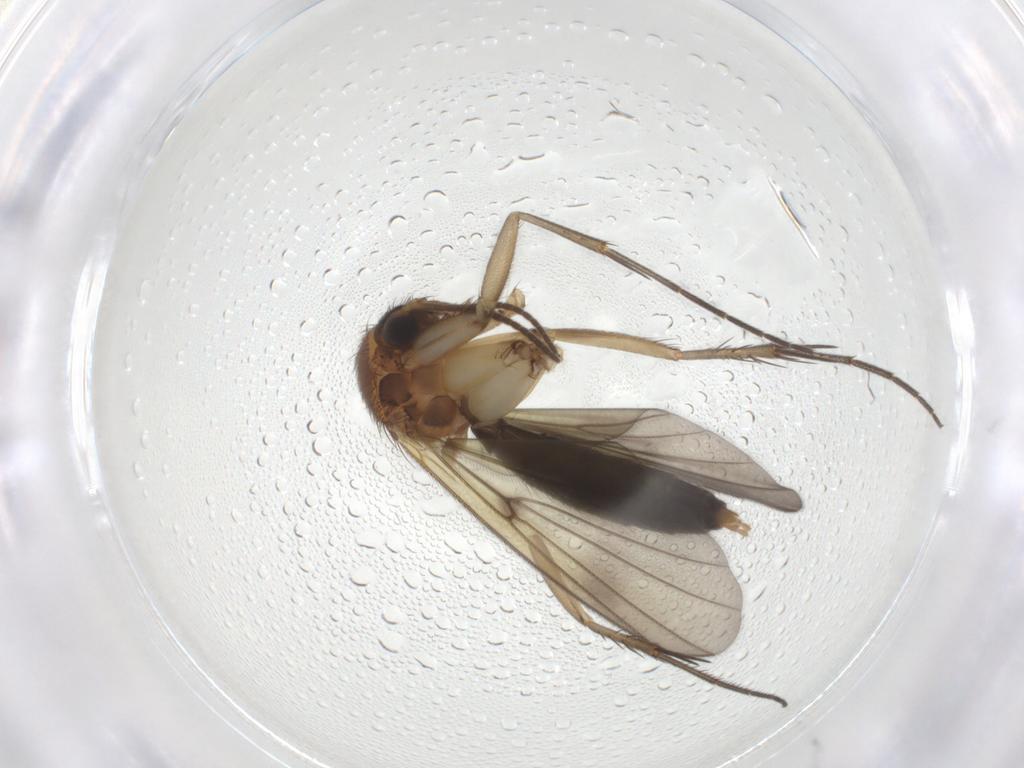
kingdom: Animalia
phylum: Arthropoda
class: Insecta
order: Diptera
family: Mycetophilidae
